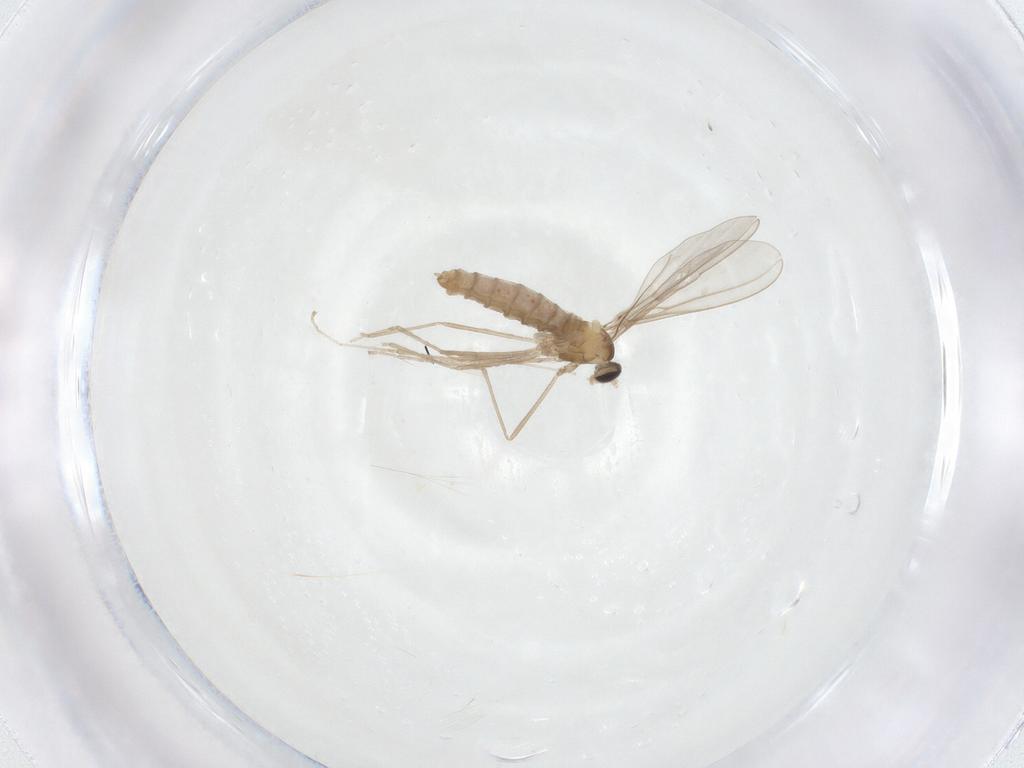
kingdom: Animalia
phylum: Arthropoda
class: Insecta
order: Diptera
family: Cecidomyiidae
